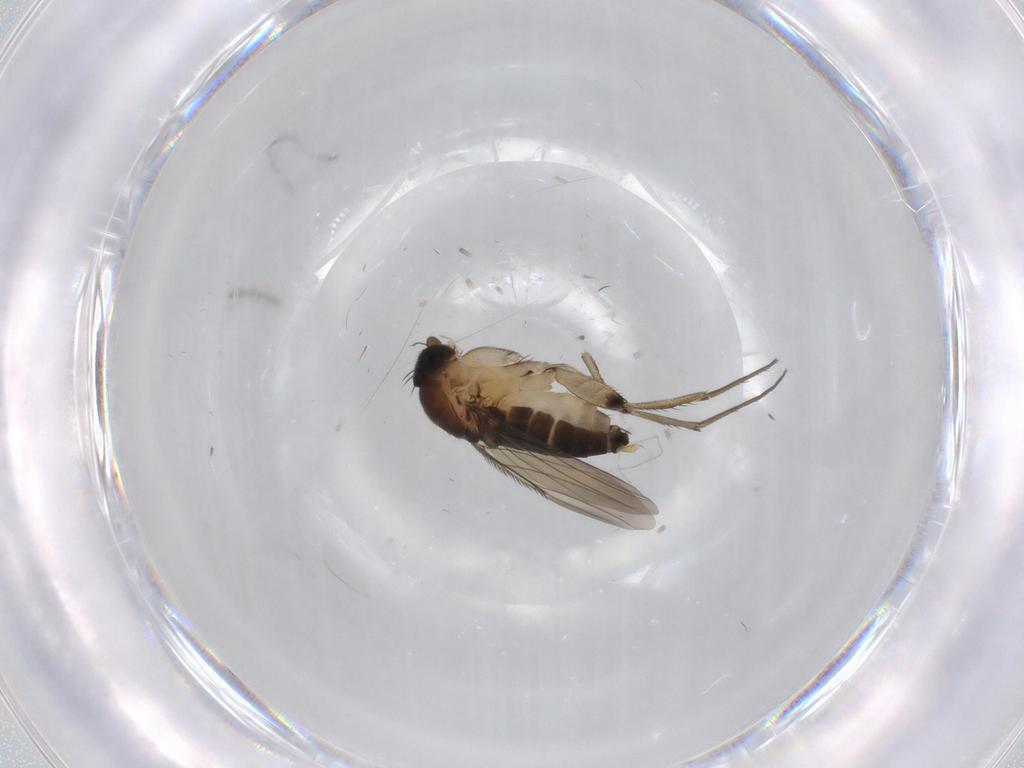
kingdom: Animalia
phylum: Arthropoda
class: Insecta
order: Diptera
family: Phoridae
